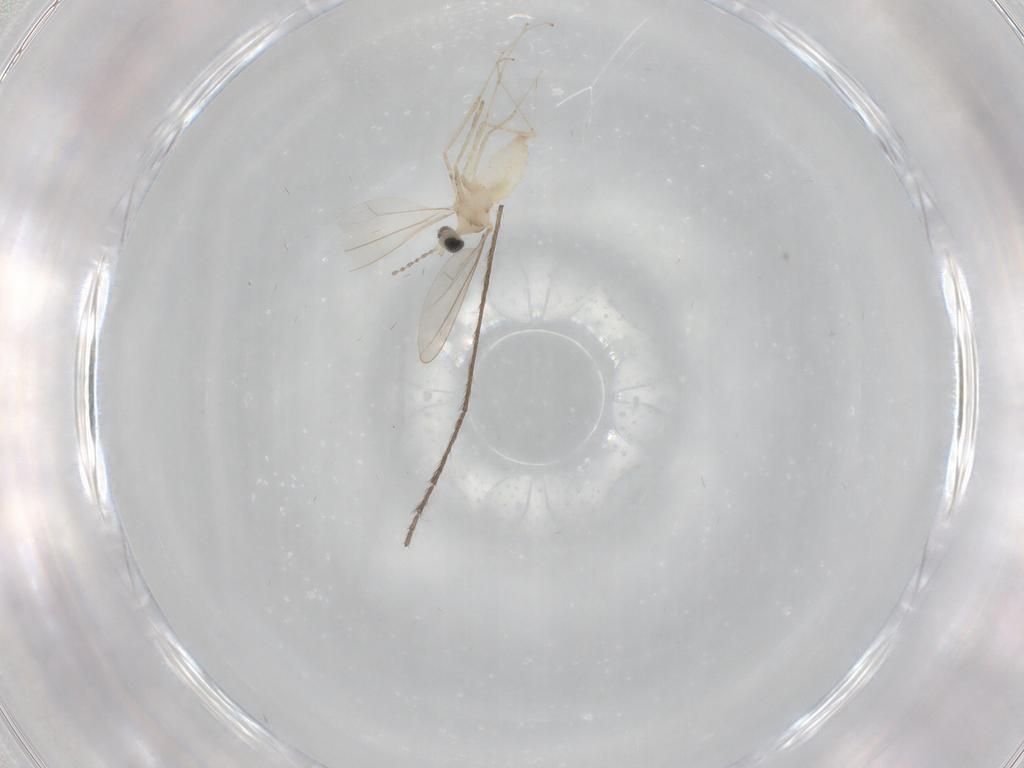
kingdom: Animalia
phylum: Arthropoda
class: Insecta
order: Diptera
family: Cecidomyiidae
